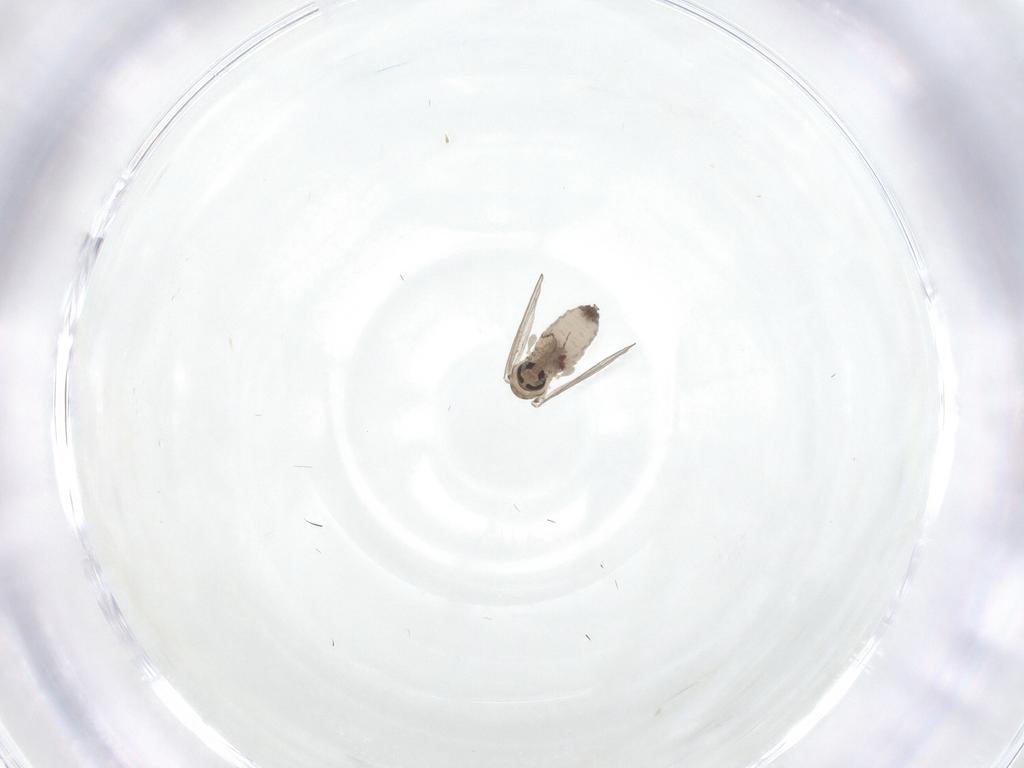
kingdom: Animalia
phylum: Arthropoda
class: Insecta
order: Diptera
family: Psychodidae
